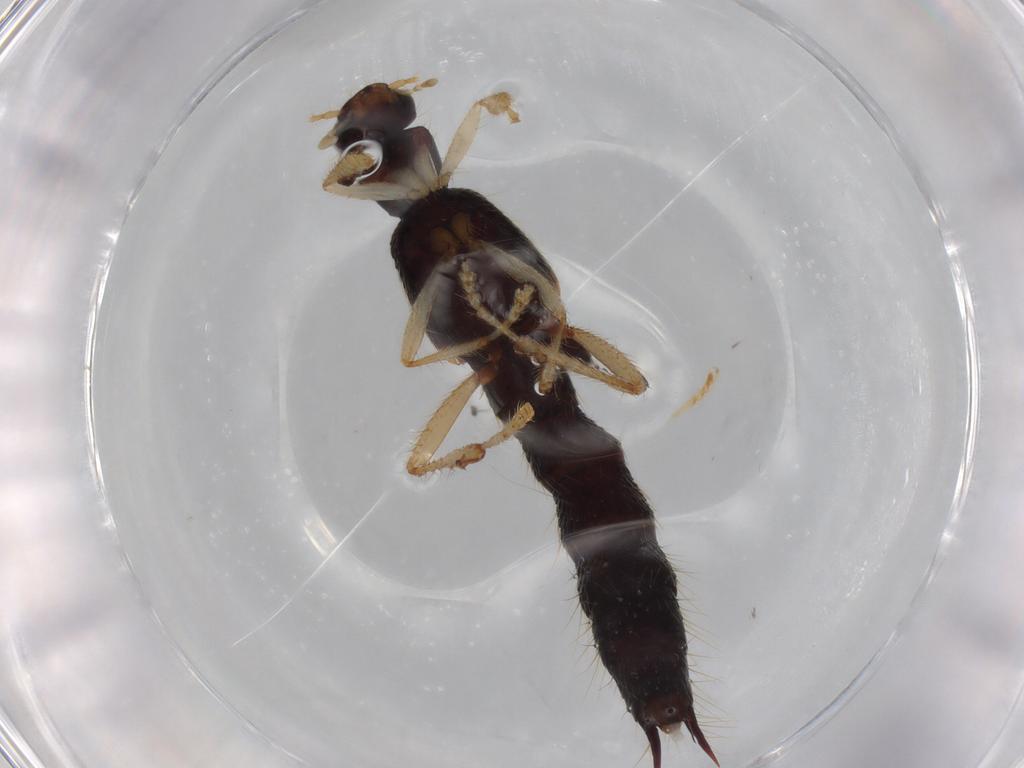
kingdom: Animalia
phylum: Arthropoda
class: Insecta
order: Coleoptera
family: Staphylinidae
